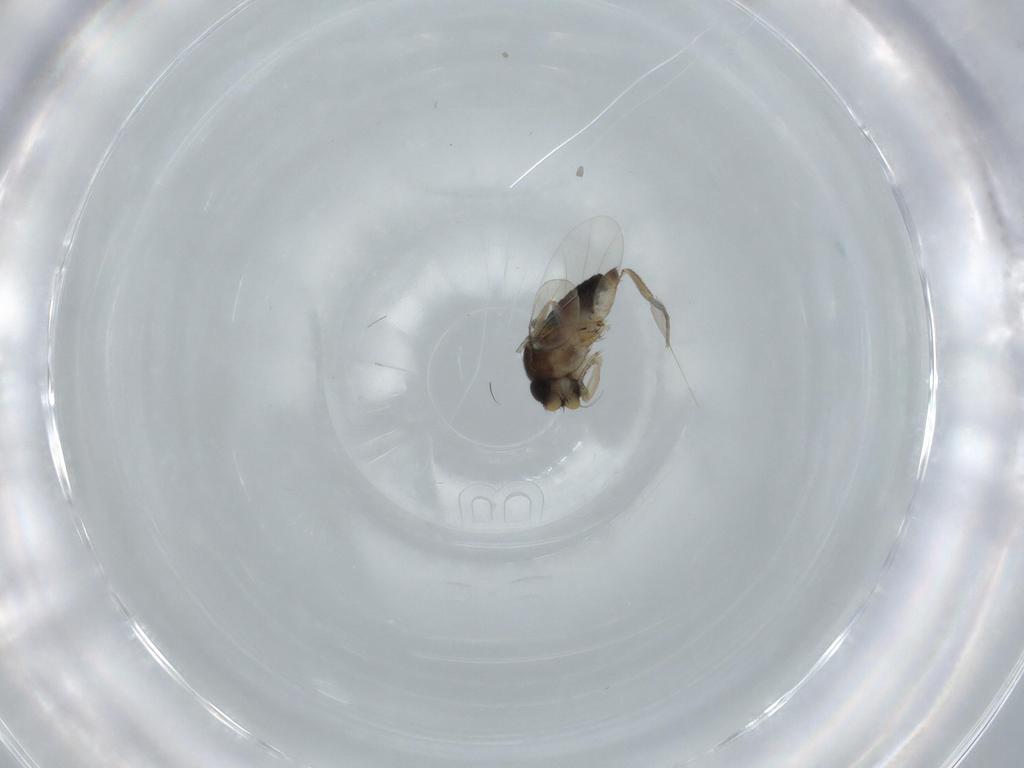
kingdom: Animalia
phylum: Arthropoda
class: Insecta
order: Diptera
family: Phoridae
